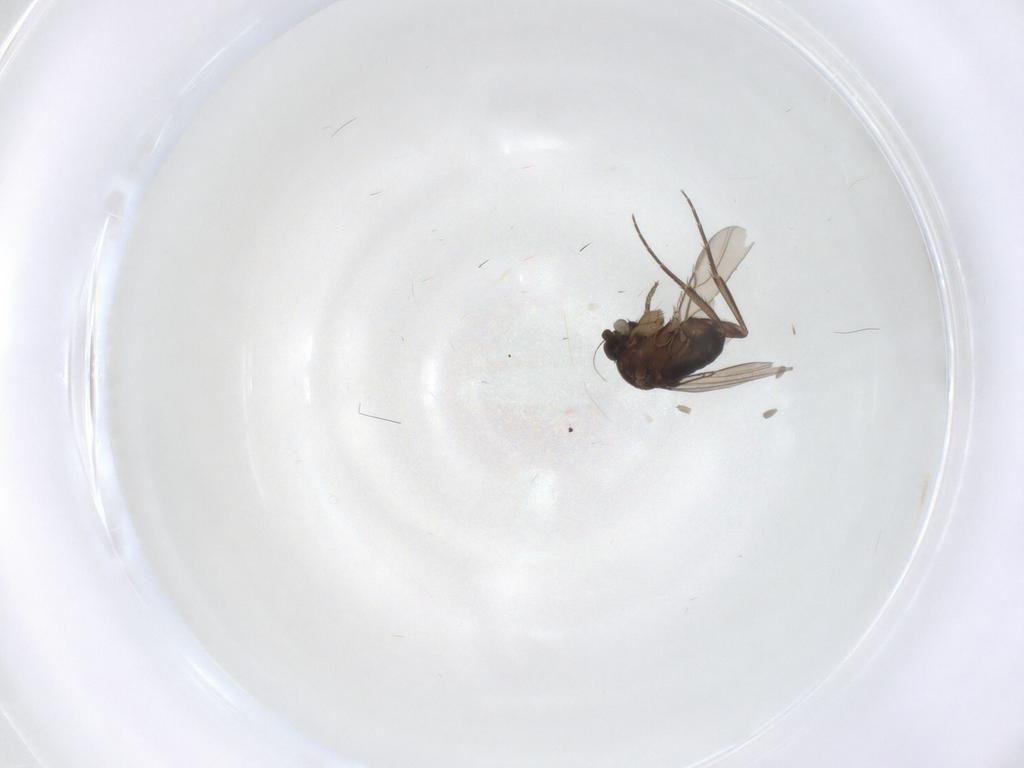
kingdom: Animalia
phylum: Arthropoda
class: Insecta
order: Diptera
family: Phoridae
